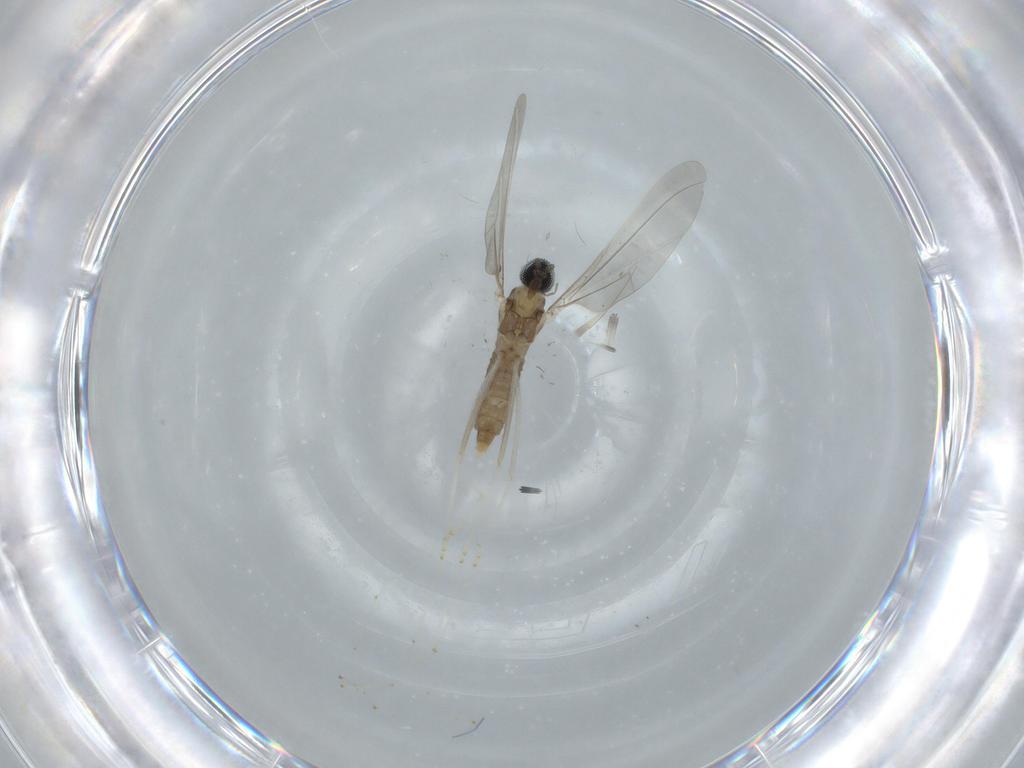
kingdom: Animalia
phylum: Arthropoda
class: Insecta
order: Diptera
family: Cecidomyiidae
